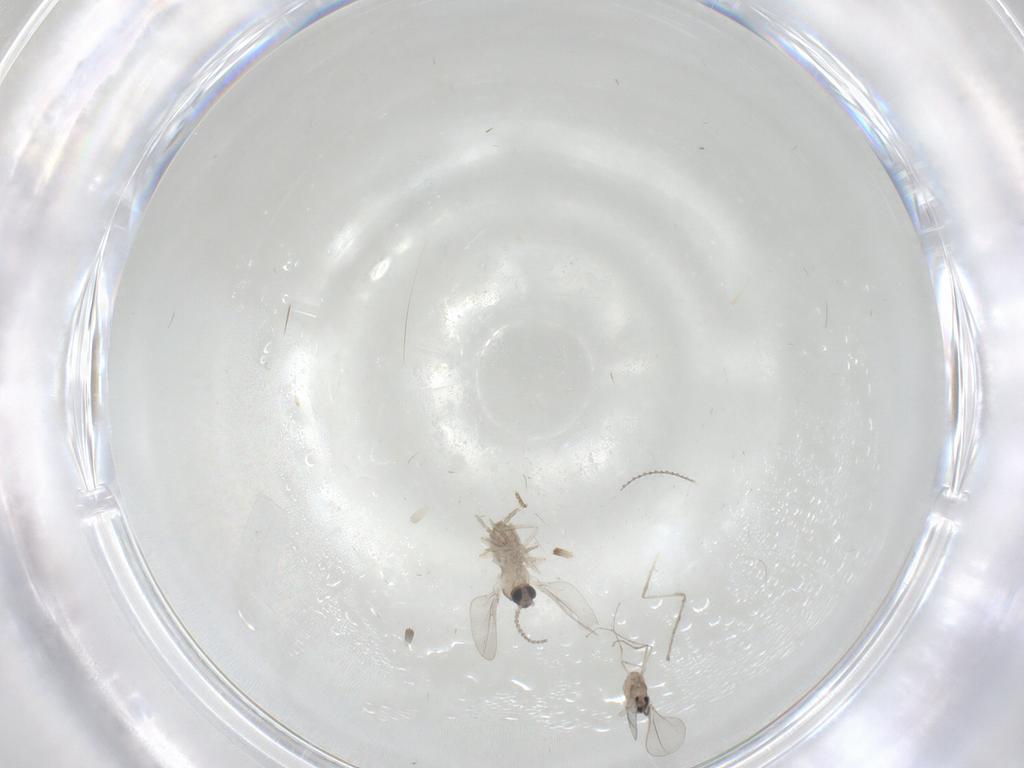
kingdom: Animalia
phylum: Arthropoda
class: Insecta
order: Diptera
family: Cecidomyiidae
